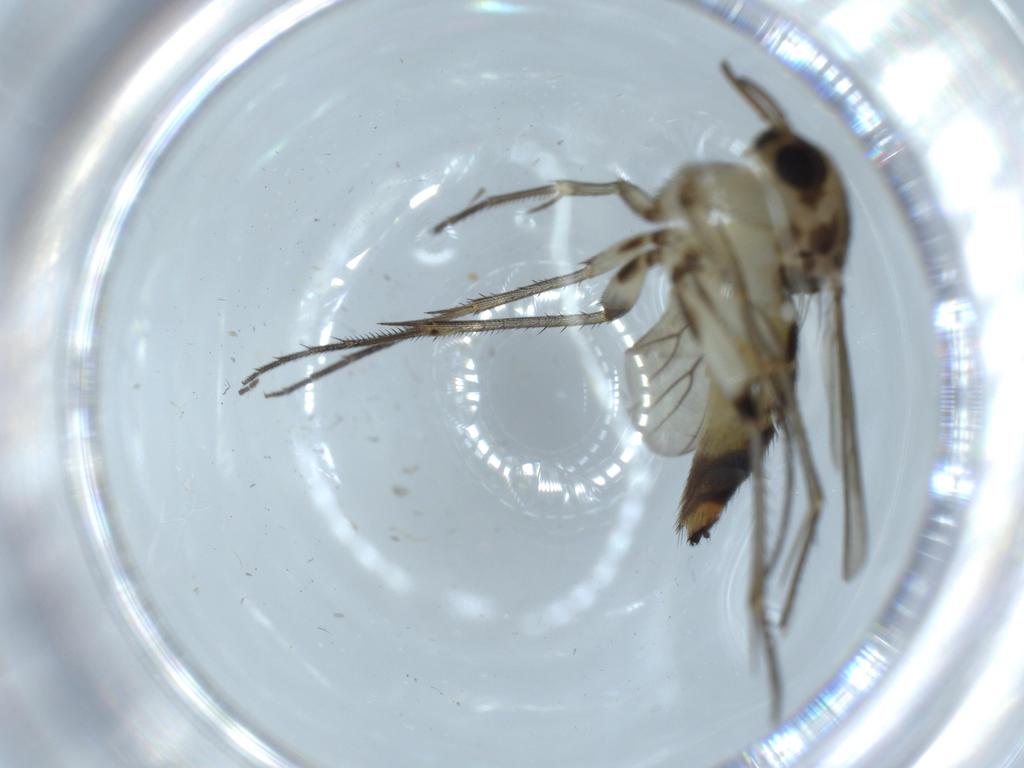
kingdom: Animalia
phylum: Arthropoda
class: Insecta
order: Diptera
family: Chironomidae
